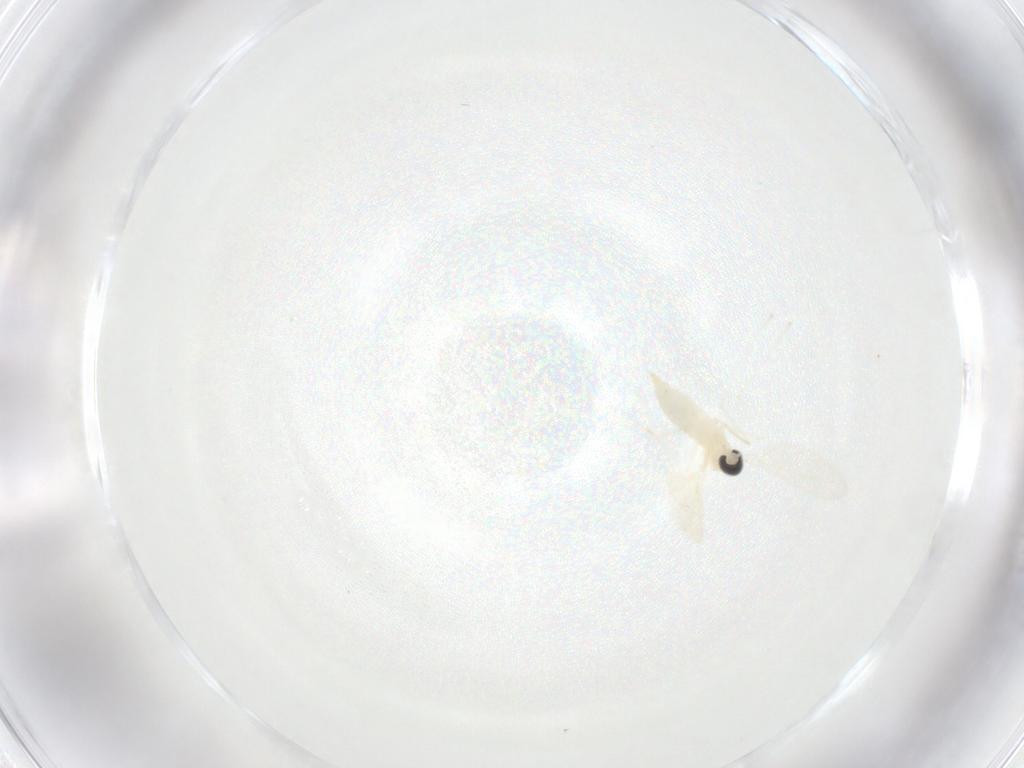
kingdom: Animalia
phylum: Arthropoda
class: Insecta
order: Diptera
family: Cecidomyiidae
